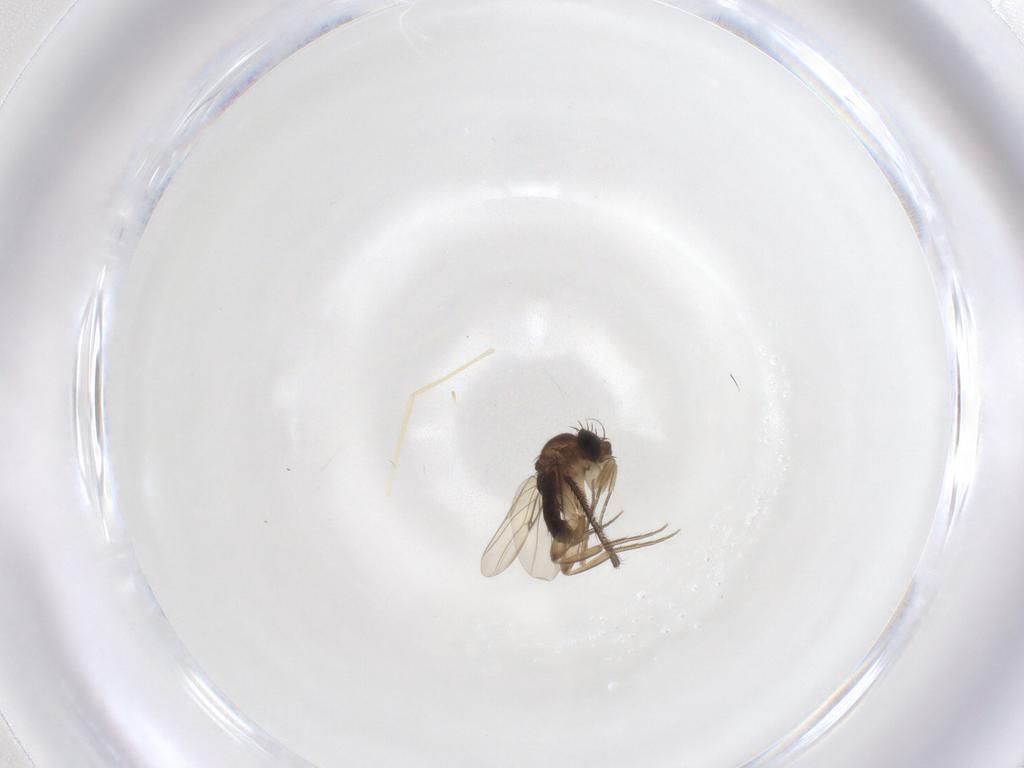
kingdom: Animalia
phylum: Arthropoda
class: Insecta
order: Diptera
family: Phoridae
